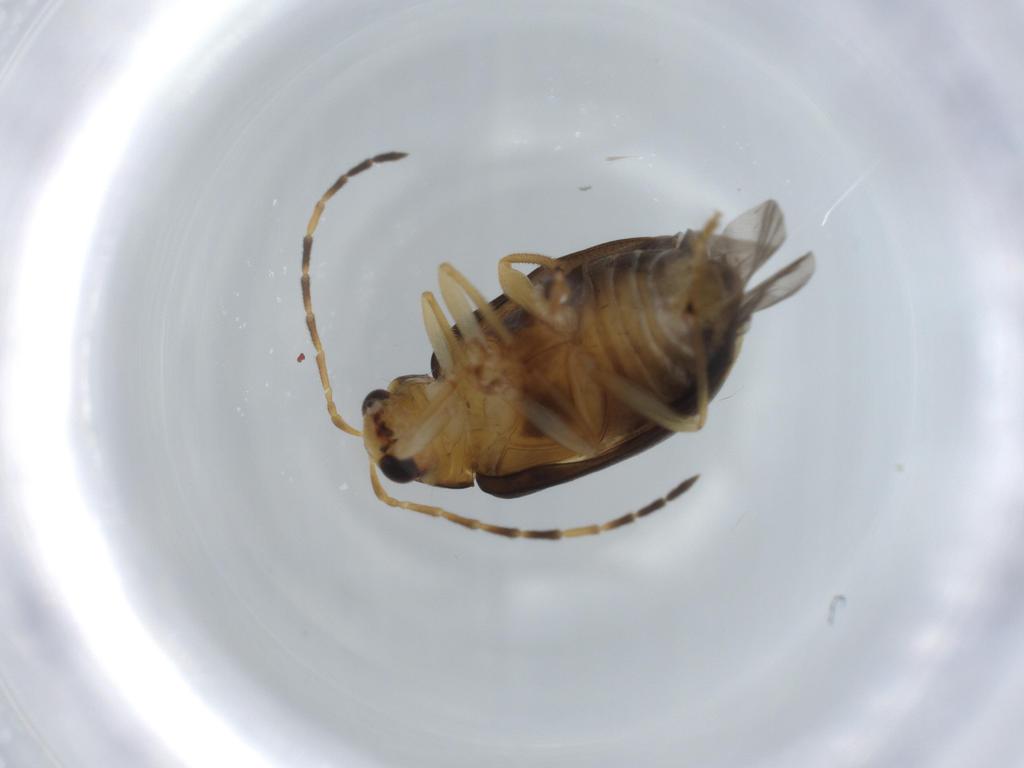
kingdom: Animalia
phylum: Arthropoda
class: Insecta
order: Coleoptera
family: Chrysomelidae
